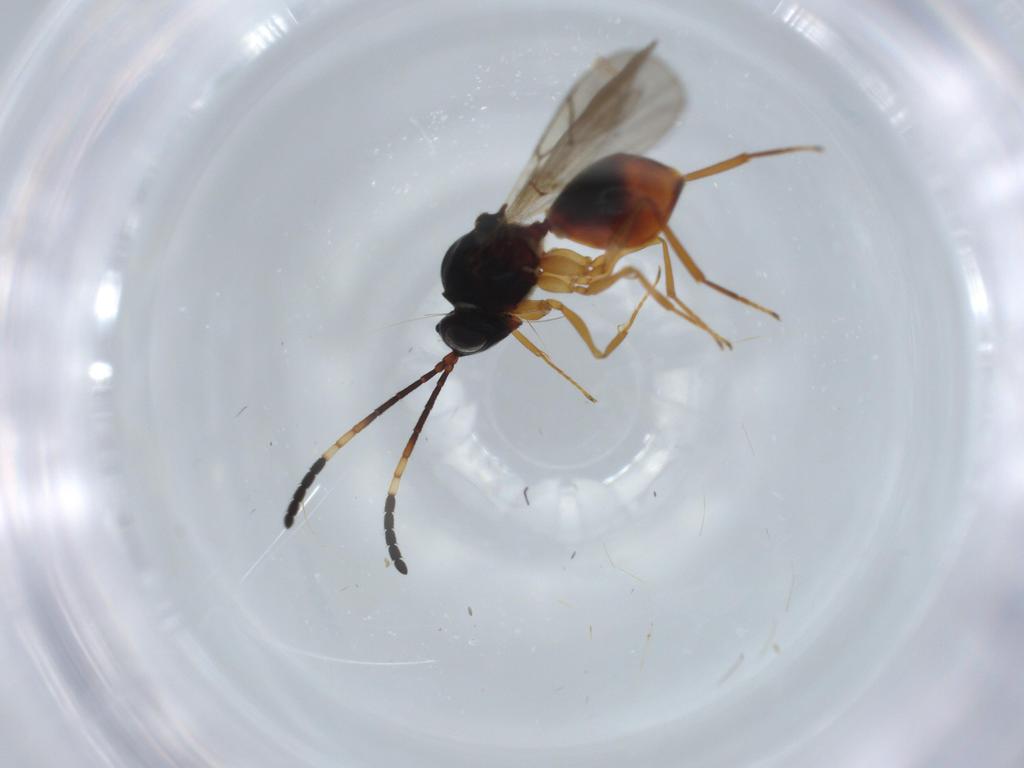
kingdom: Animalia
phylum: Arthropoda
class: Insecta
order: Hymenoptera
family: Figitidae
